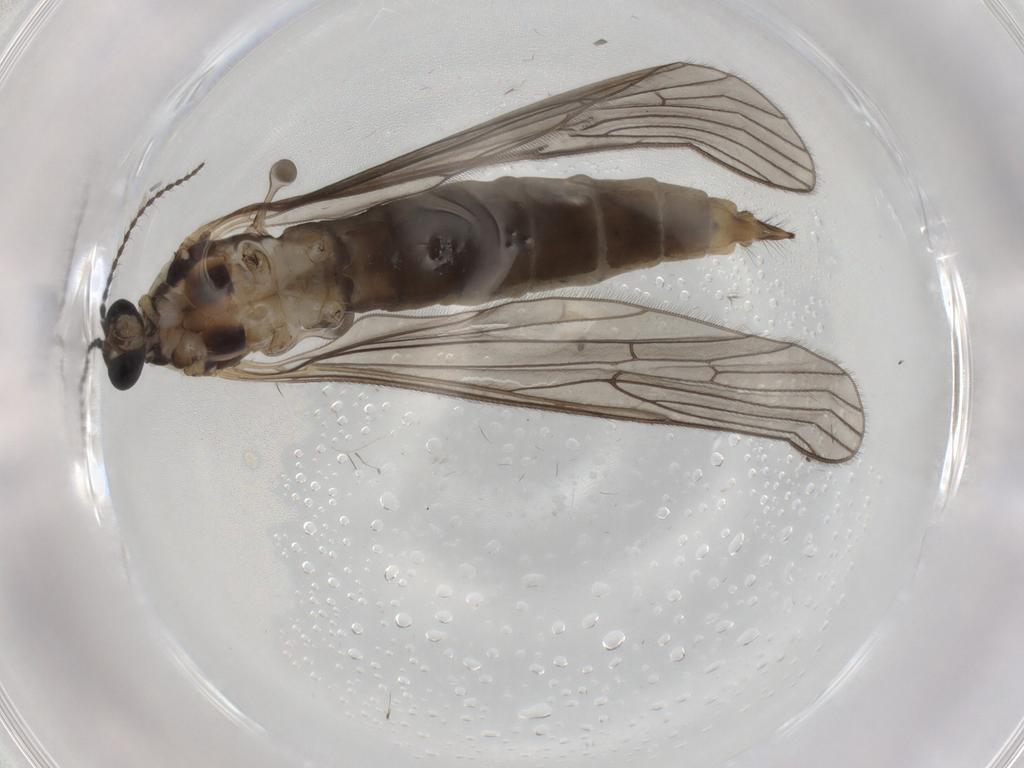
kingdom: Animalia
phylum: Arthropoda
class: Insecta
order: Diptera
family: Limoniidae
